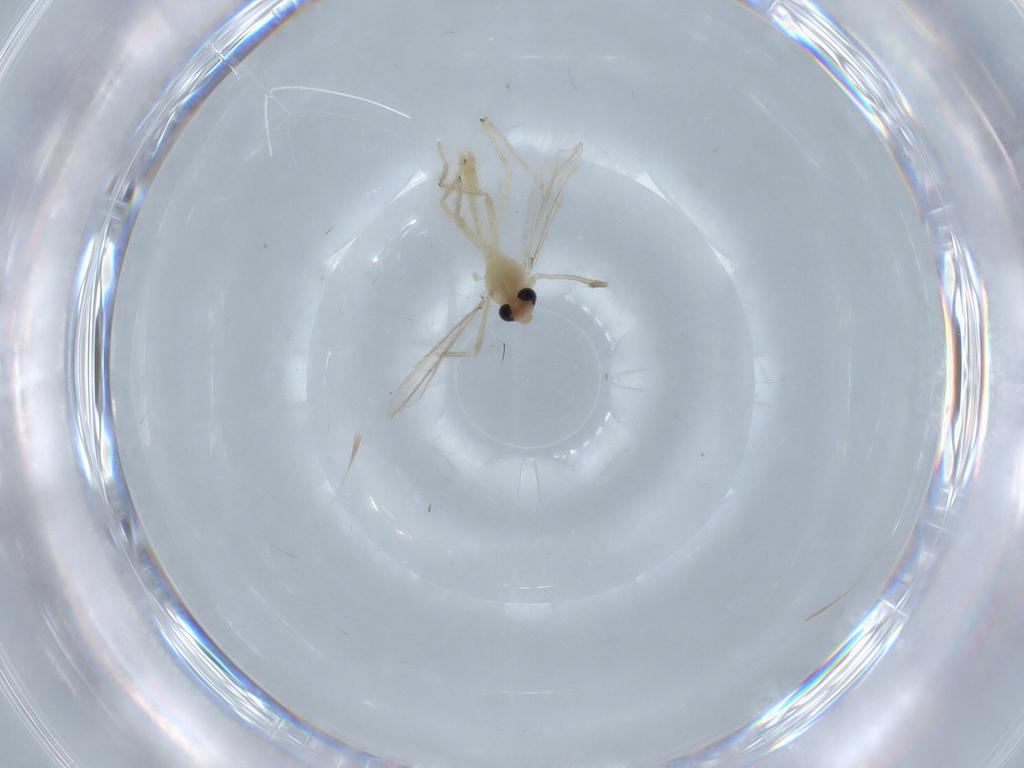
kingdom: Animalia
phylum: Arthropoda
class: Insecta
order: Diptera
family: Chironomidae
